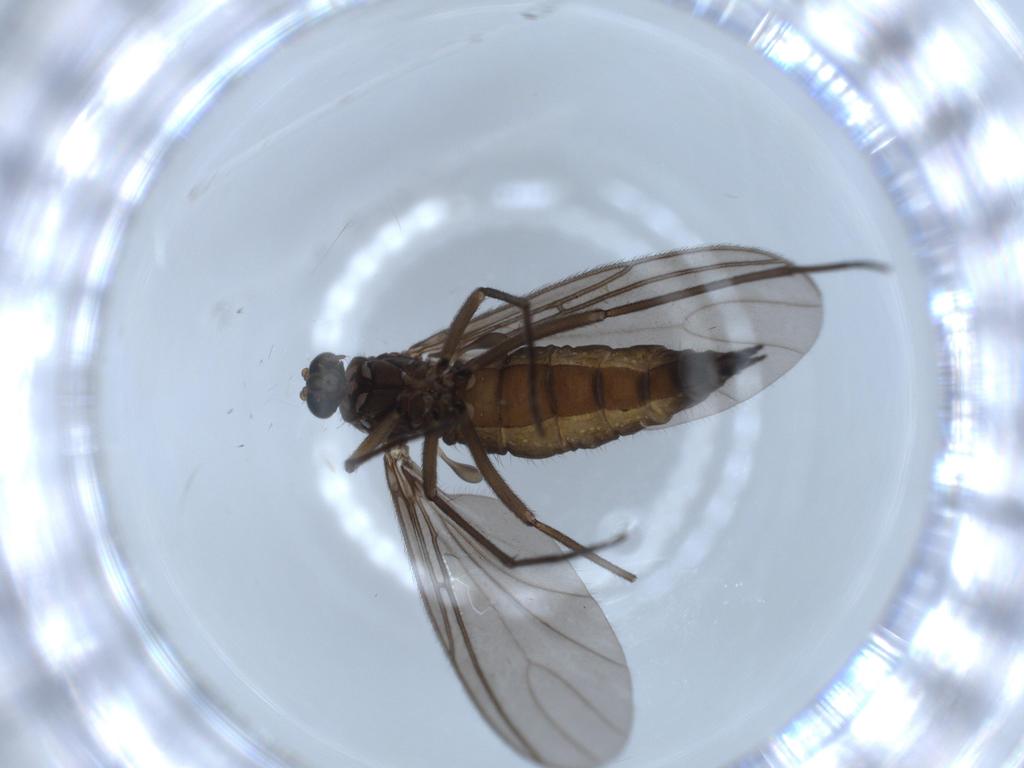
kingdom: Animalia
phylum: Arthropoda
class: Insecta
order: Diptera
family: Sciaridae
